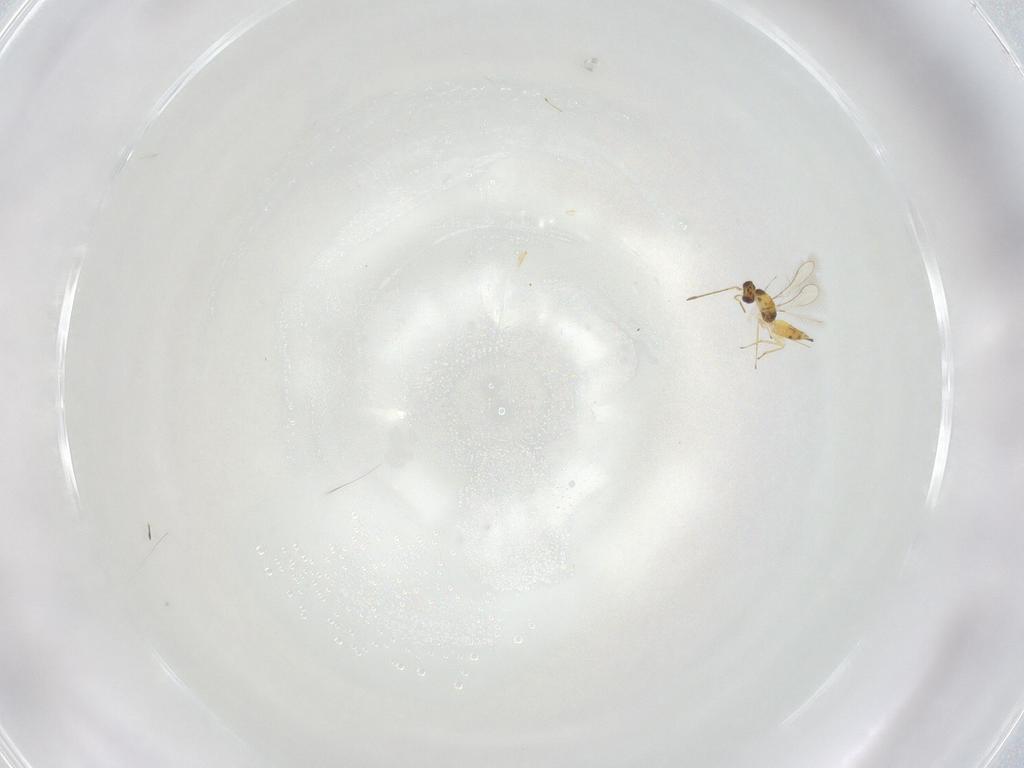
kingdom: Animalia
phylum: Arthropoda
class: Insecta
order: Hymenoptera
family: Mymaridae
